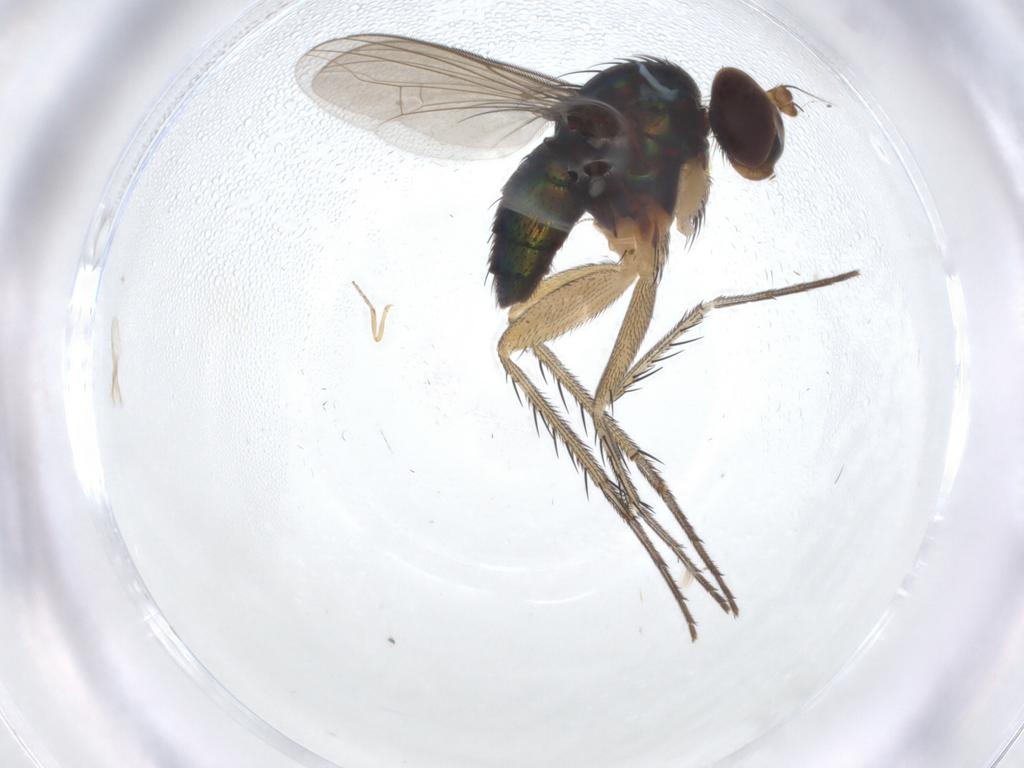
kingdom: Animalia
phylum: Arthropoda
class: Insecta
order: Diptera
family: Dolichopodidae
